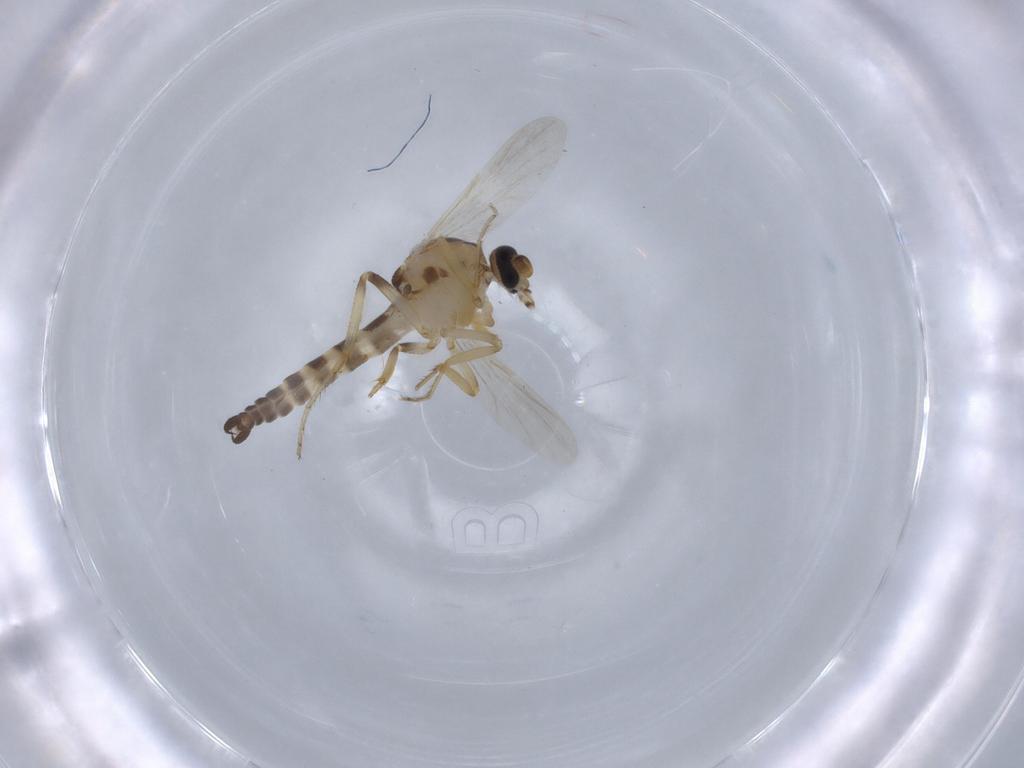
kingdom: Animalia
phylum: Arthropoda
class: Insecta
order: Diptera
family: Ceratopogonidae
